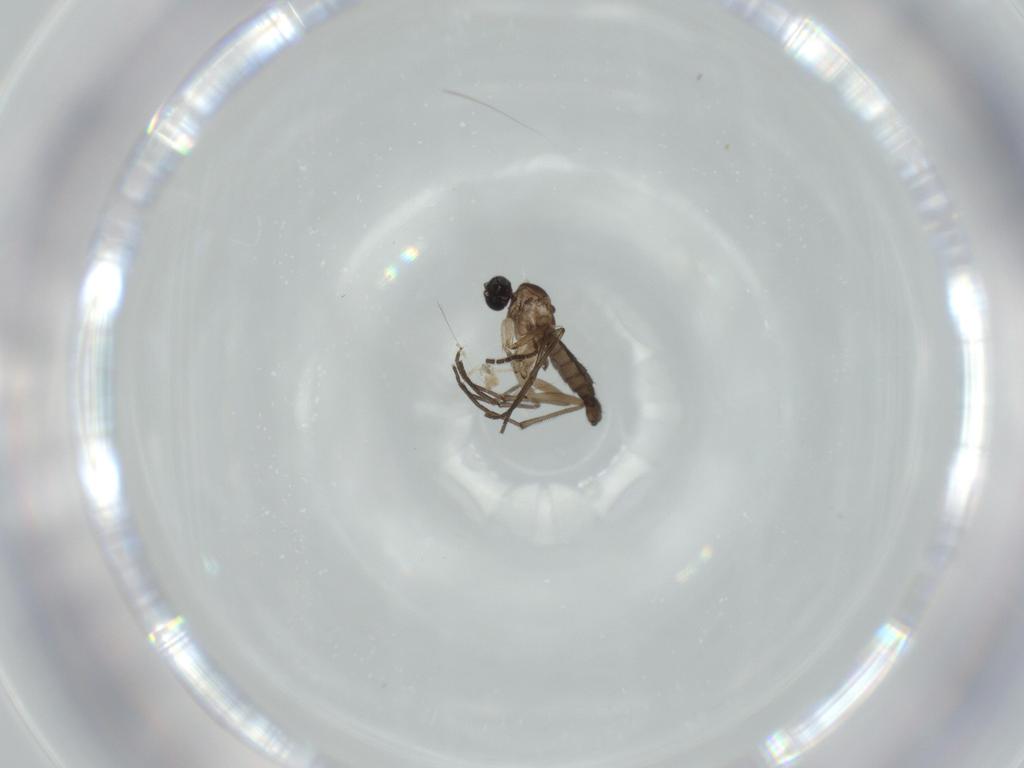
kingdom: Animalia
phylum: Arthropoda
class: Insecta
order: Diptera
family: Sciaridae
